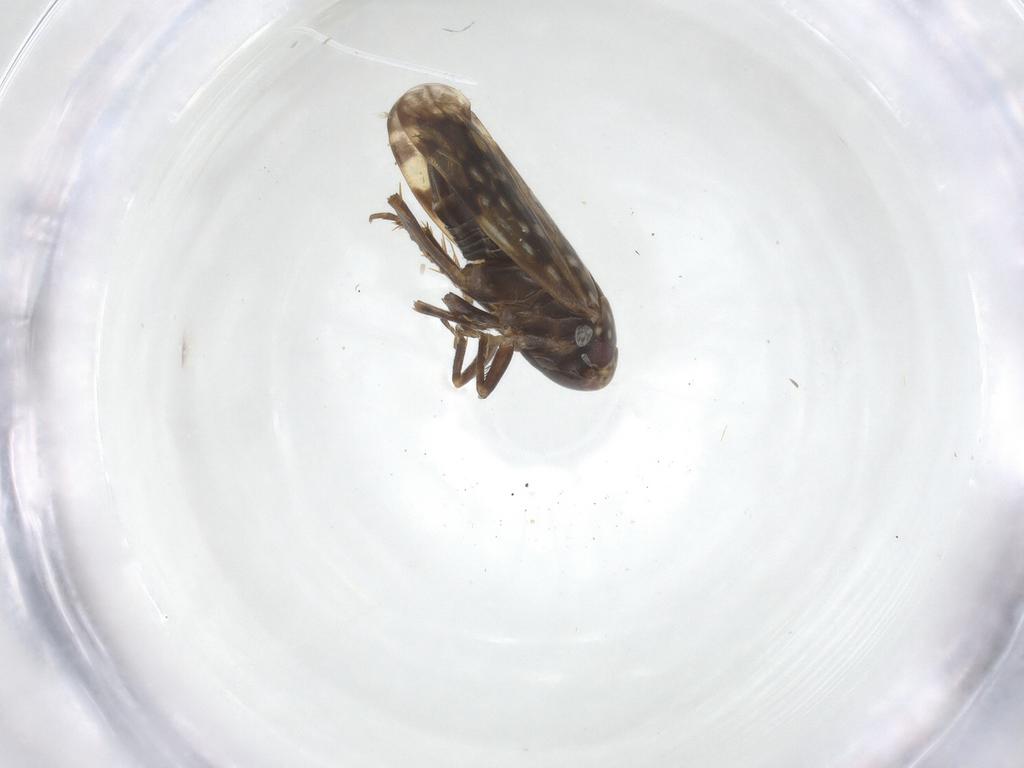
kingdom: Animalia
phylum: Arthropoda
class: Insecta
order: Hemiptera
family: Cicadellidae
